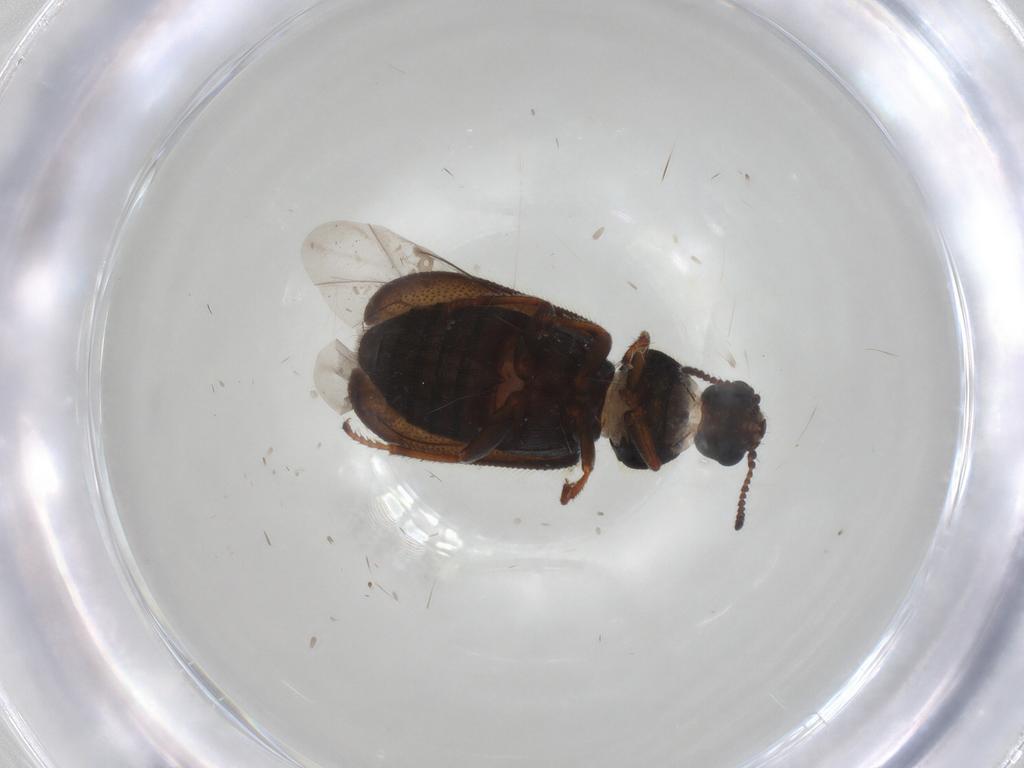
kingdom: Animalia
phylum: Arthropoda
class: Insecta
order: Coleoptera
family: Melyridae
